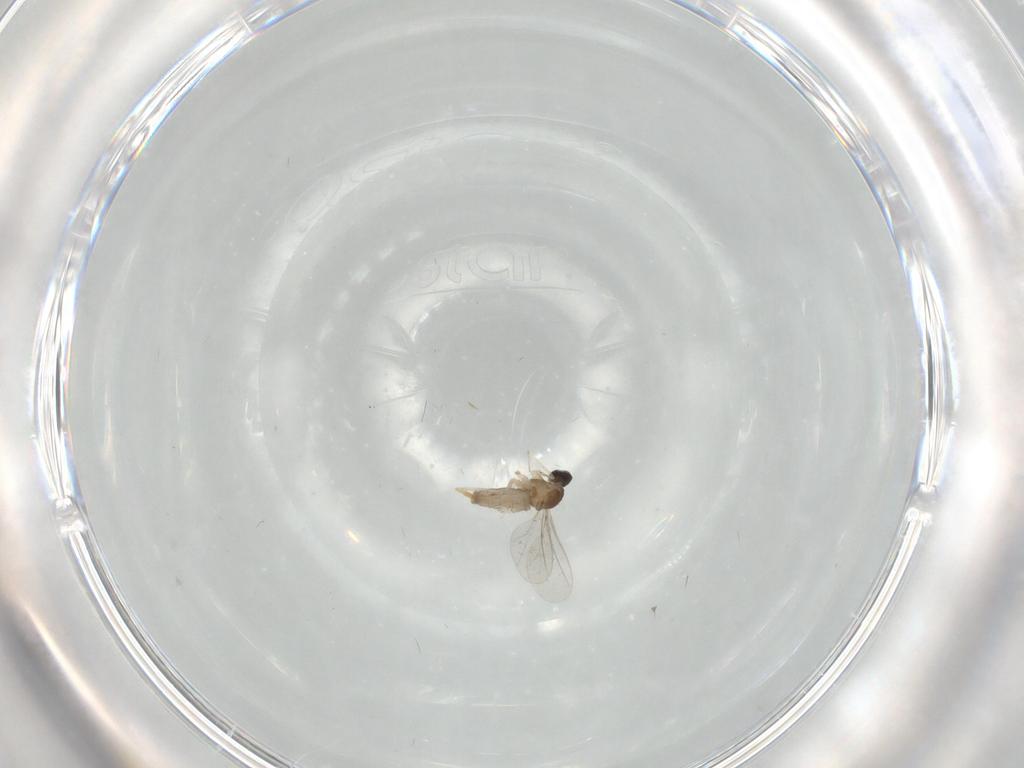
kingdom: Animalia
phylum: Arthropoda
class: Insecta
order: Diptera
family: Cecidomyiidae
